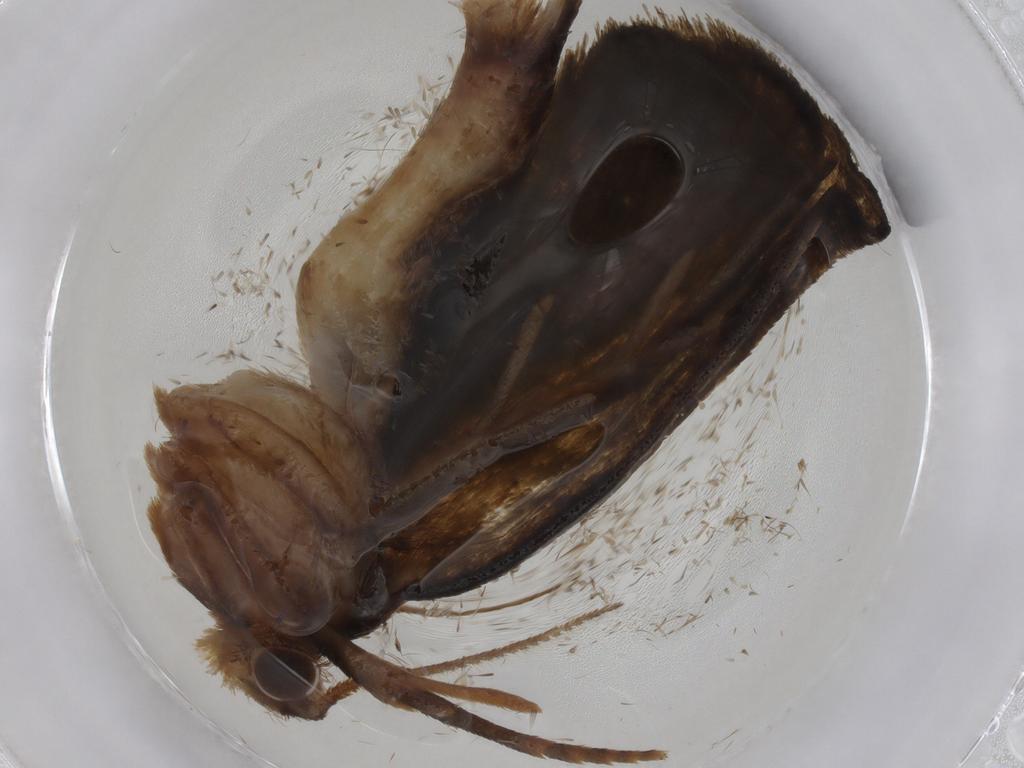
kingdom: Animalia
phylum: Arthropoda
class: Insecta
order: Lepidoptera
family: Geometridae
